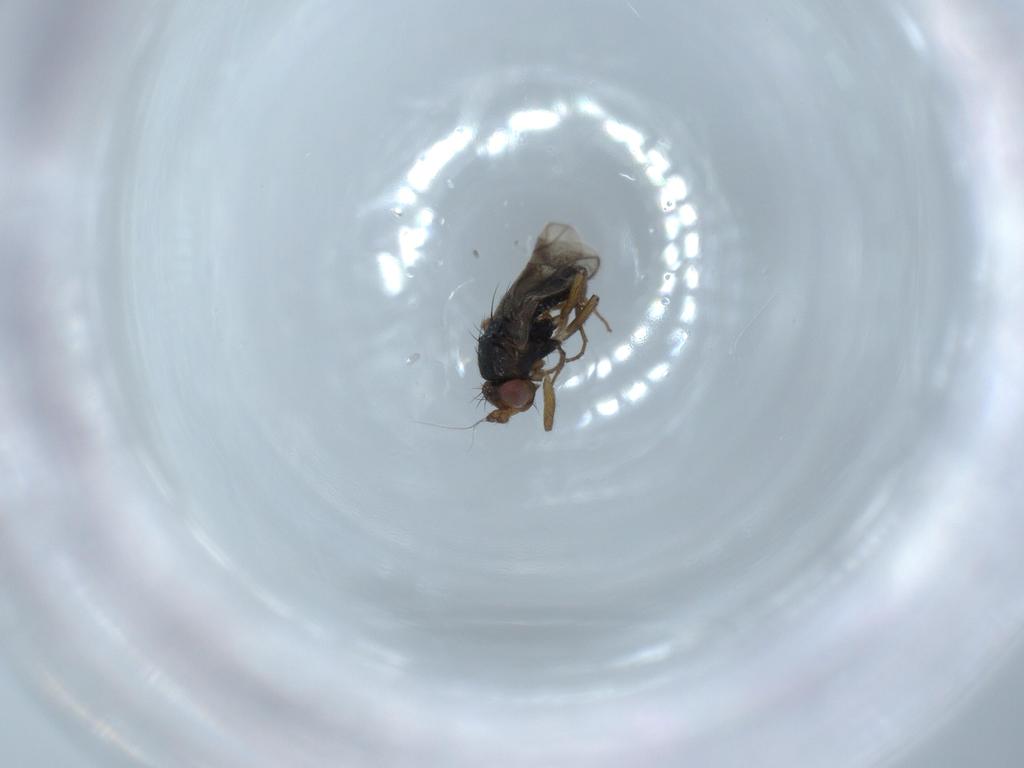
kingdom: Animalia
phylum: Arthropoda
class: Insecta
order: Diptera
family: Sphaeroceridae
